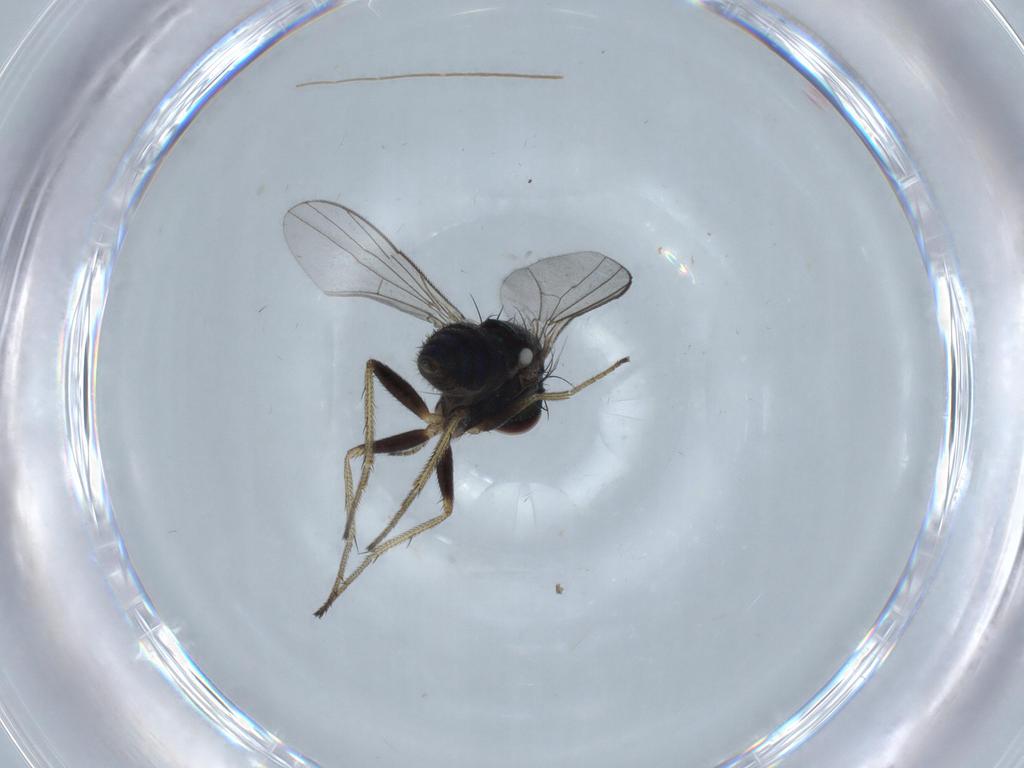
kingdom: Animalia
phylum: Arthropoda
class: Insecta
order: Diptera
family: Chironomidae
